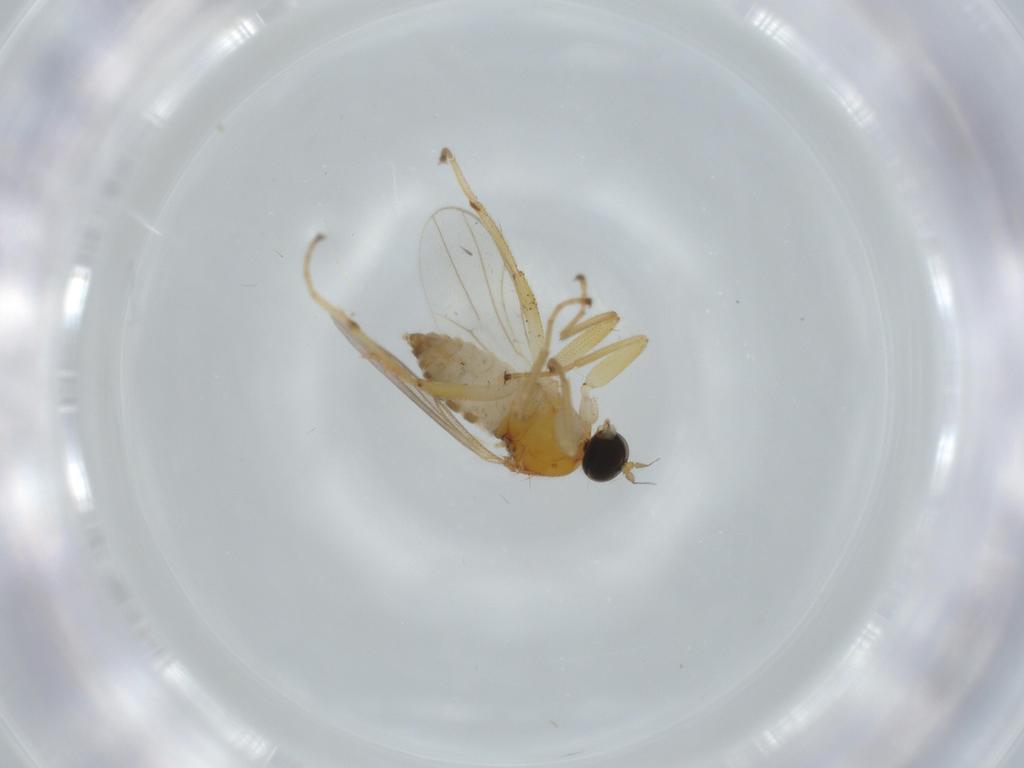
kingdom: Animalia
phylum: Arthropoda
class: Insecta
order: Diptera
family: Hybotidae
